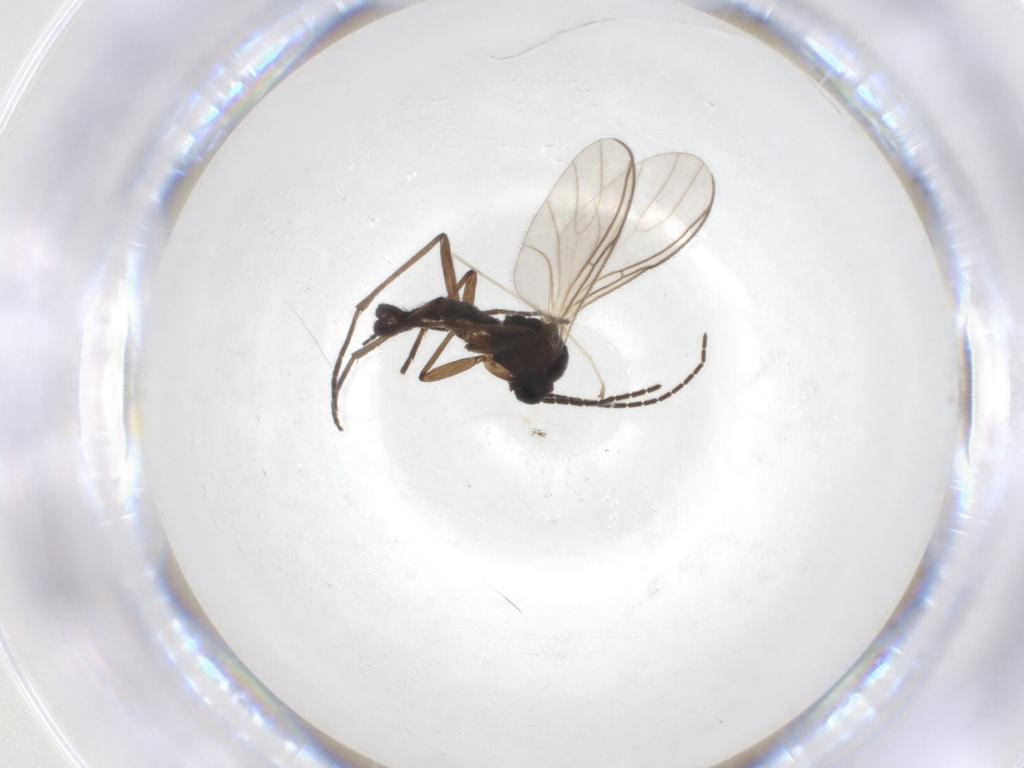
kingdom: Animalia
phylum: Arthropoda
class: Insecta
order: Diptera
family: Sciaridae
